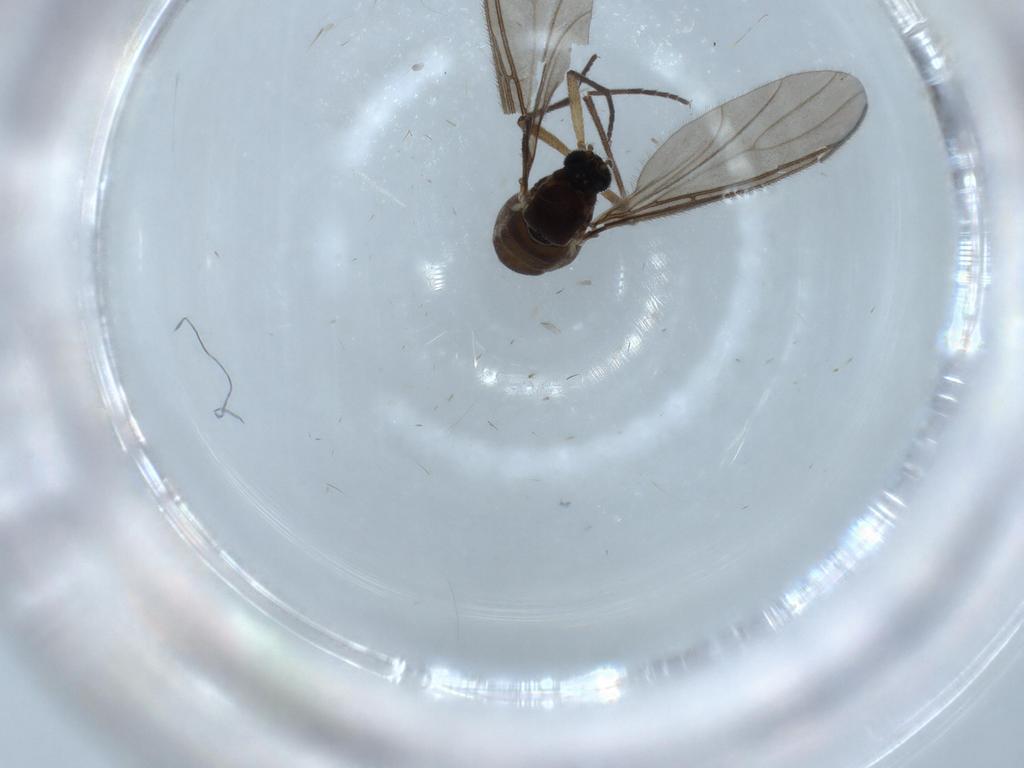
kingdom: Animalia
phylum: Arthropoda
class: Insecta
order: Diptera
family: Sciaridae
